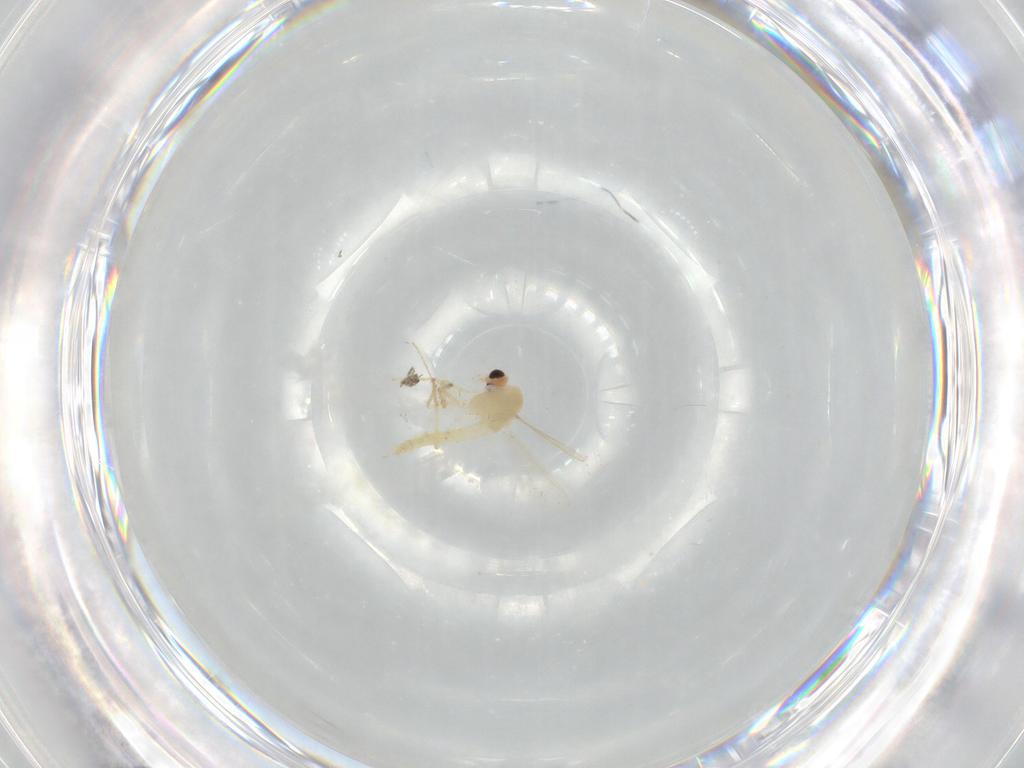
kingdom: Animalia
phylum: Arthropoda
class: Insecta
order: Diptera
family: Chironomidae
